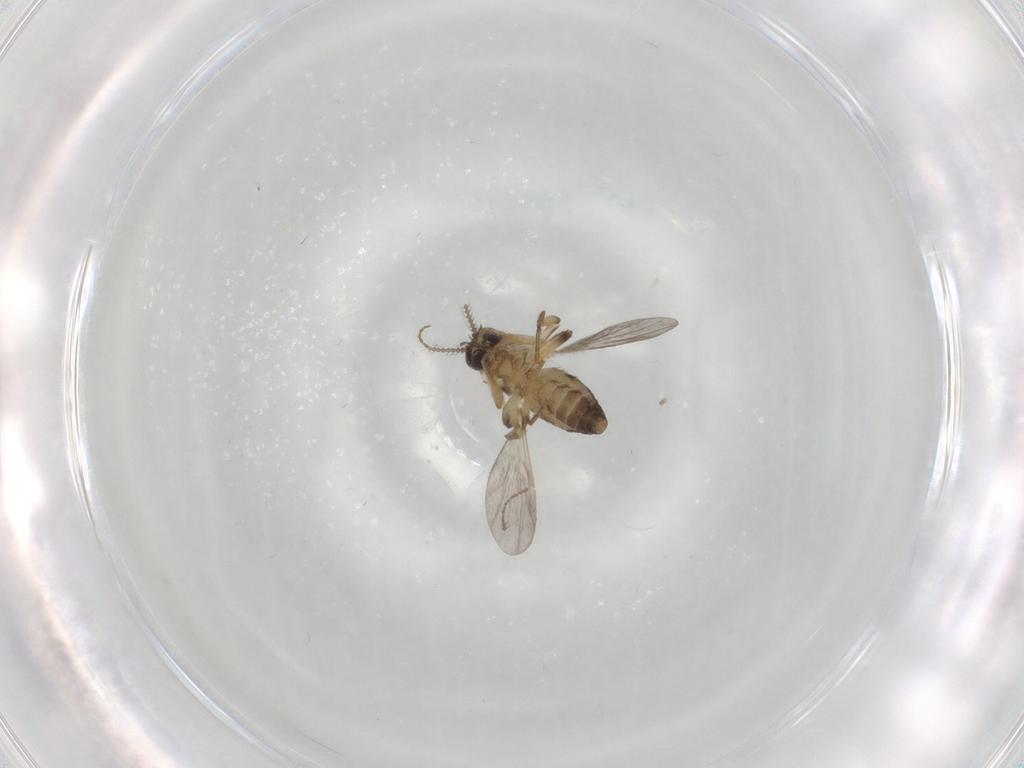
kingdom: Animalia
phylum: Arthropoda
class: Insecta
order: Diptera
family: Ceratopogonidae
